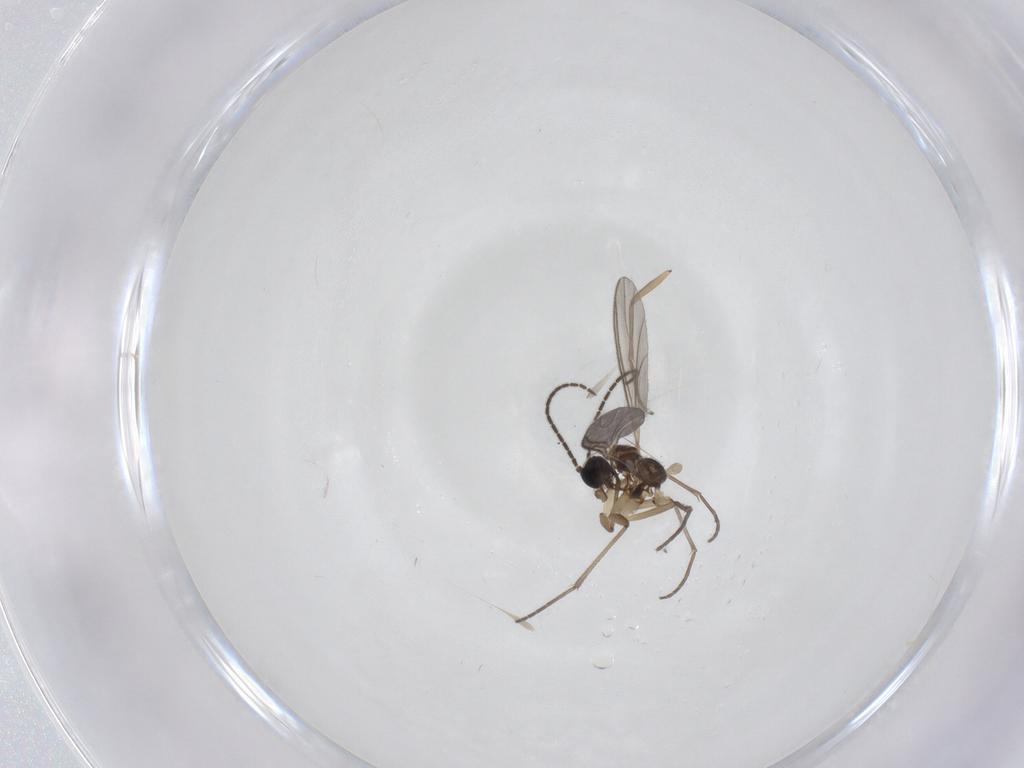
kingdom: Animalia
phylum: Arthropoda
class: Insecta
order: Diptera
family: Sciaridae
